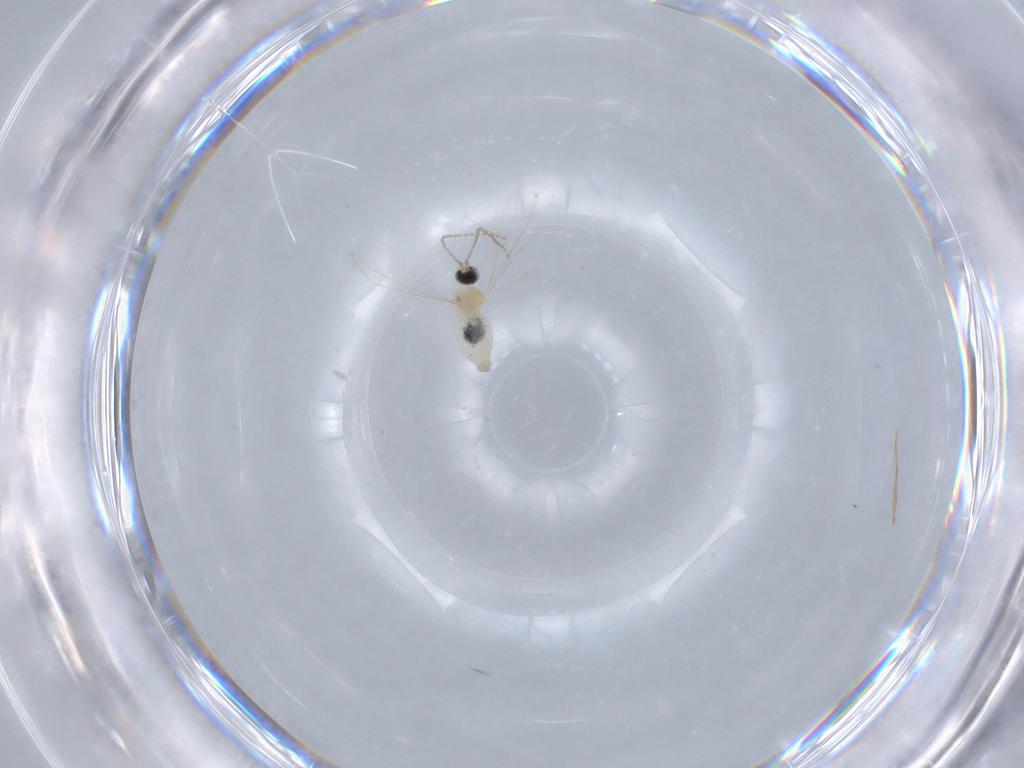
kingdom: Animalia
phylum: Arthropoda
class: Insecta
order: Diptera
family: Cecidomyiidae
